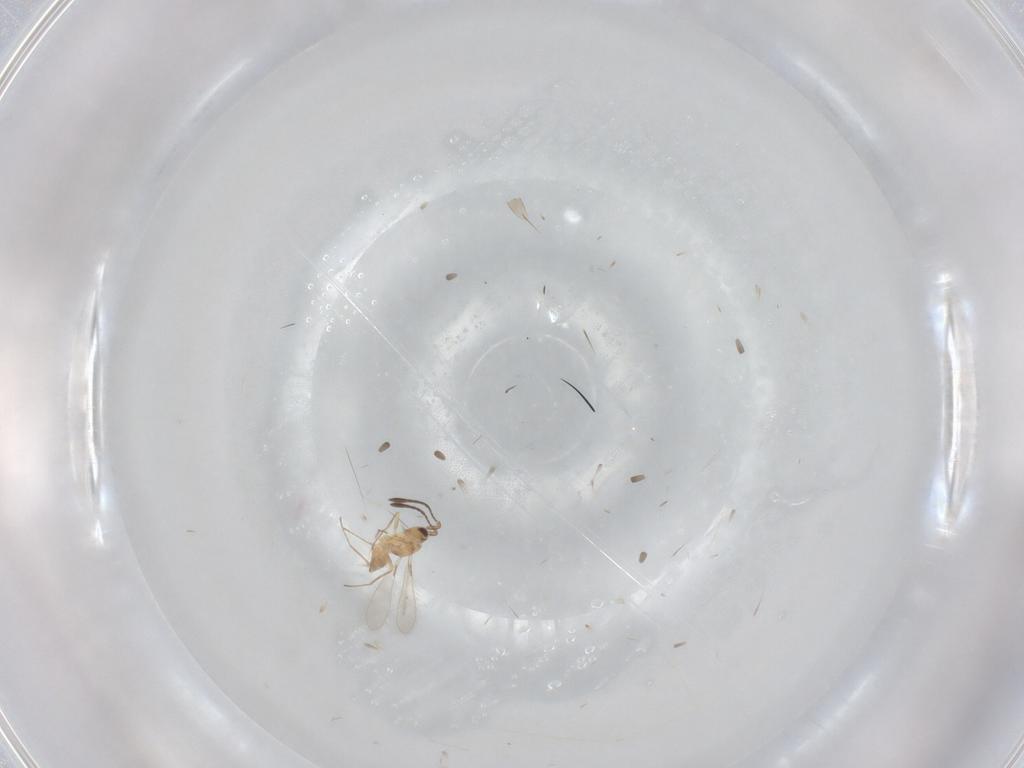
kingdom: Animalia
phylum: Arthropoda
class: Insecta
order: Hymenoptera
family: Mymaridae
